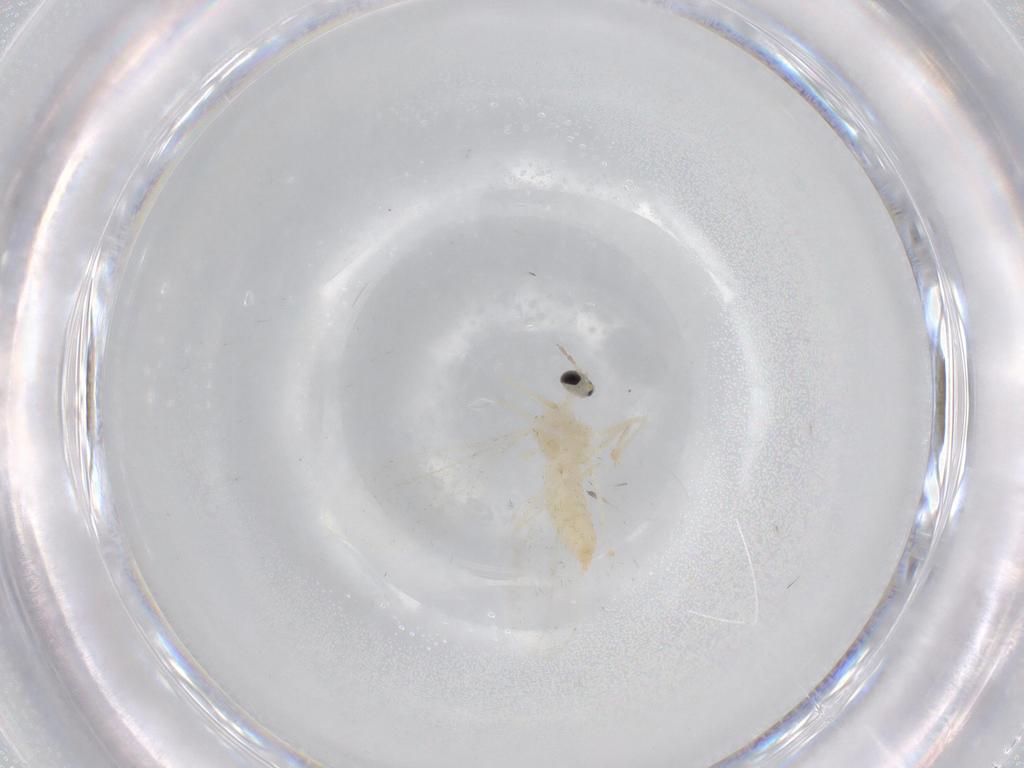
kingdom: Animalia
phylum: Arthropoda
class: Insecta
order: Diptera
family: Cecidomyiidae
